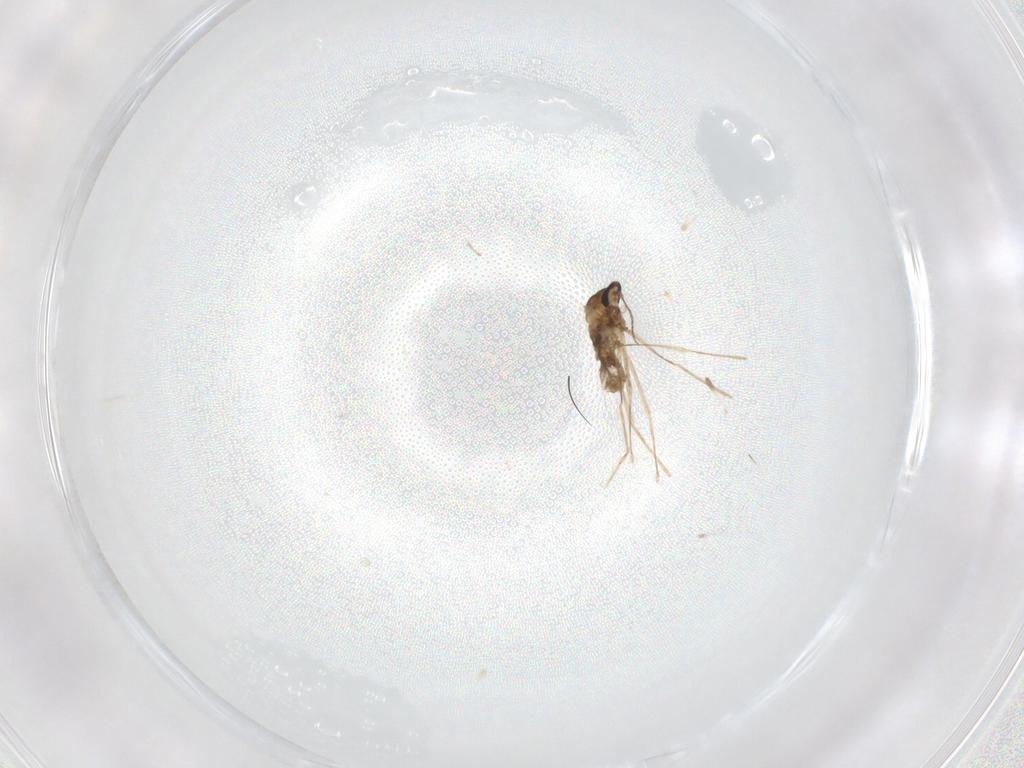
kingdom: Animalia
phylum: Arthropoda
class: Insecta
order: Diptera
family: Cecidomyiidae
